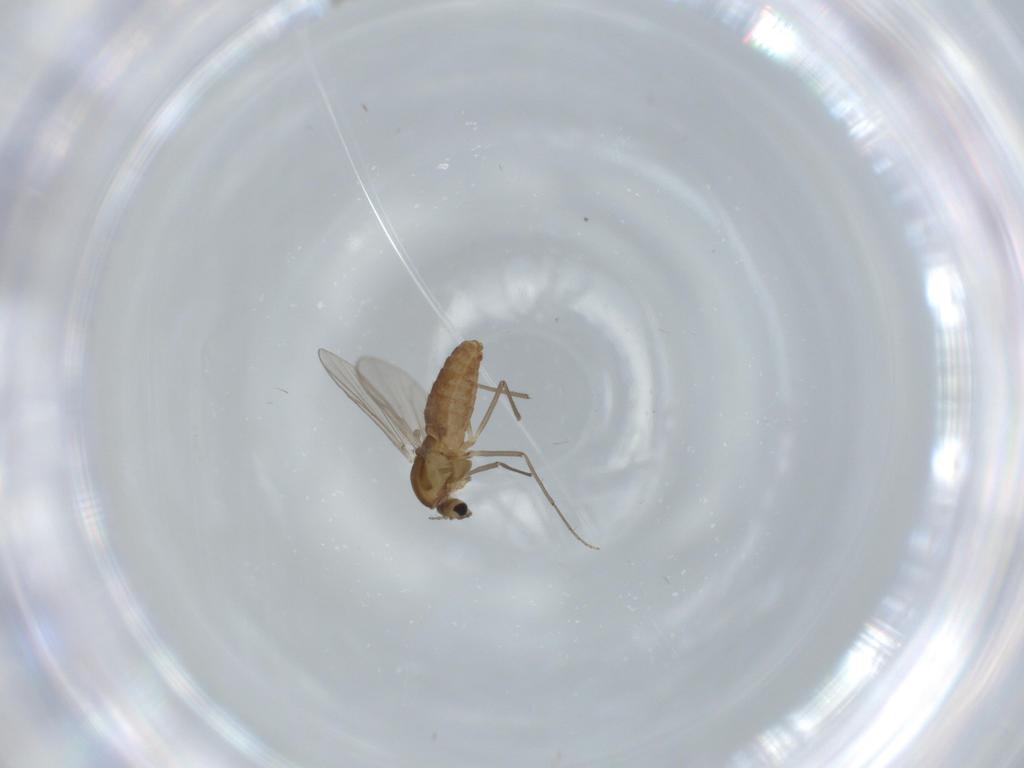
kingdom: Animalia
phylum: Arthropoda
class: Insecta
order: Diptera
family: Chironomidae
